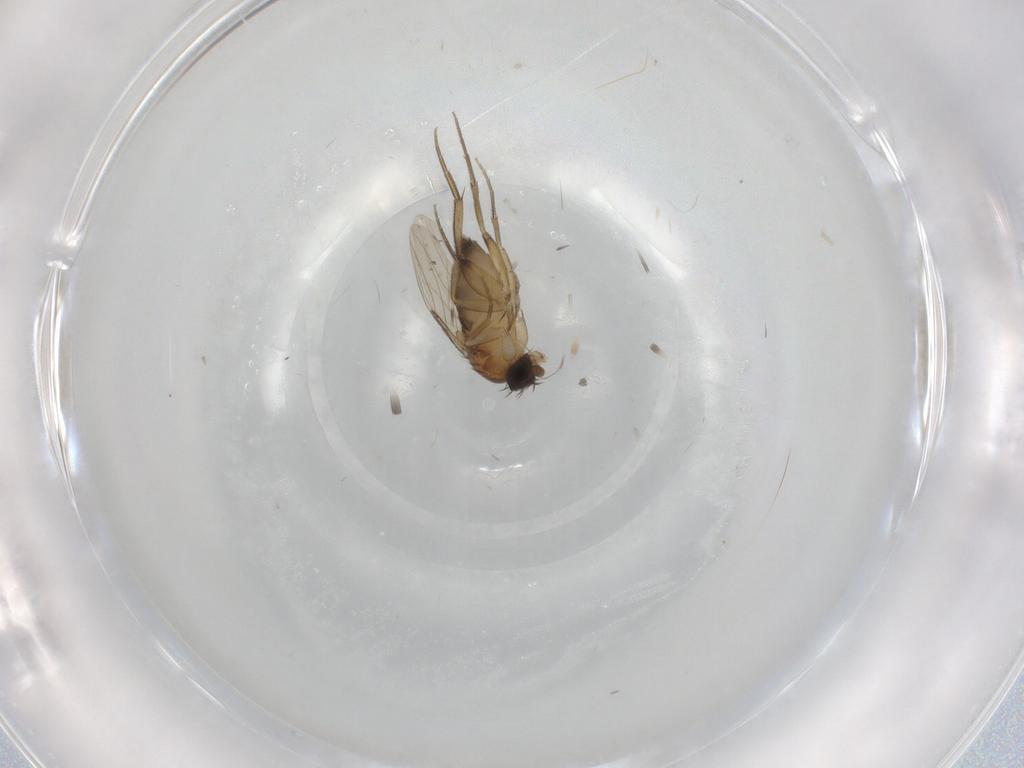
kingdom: Animalia
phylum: Arthropoda
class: Insecta
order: Diptera
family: Phoridae
